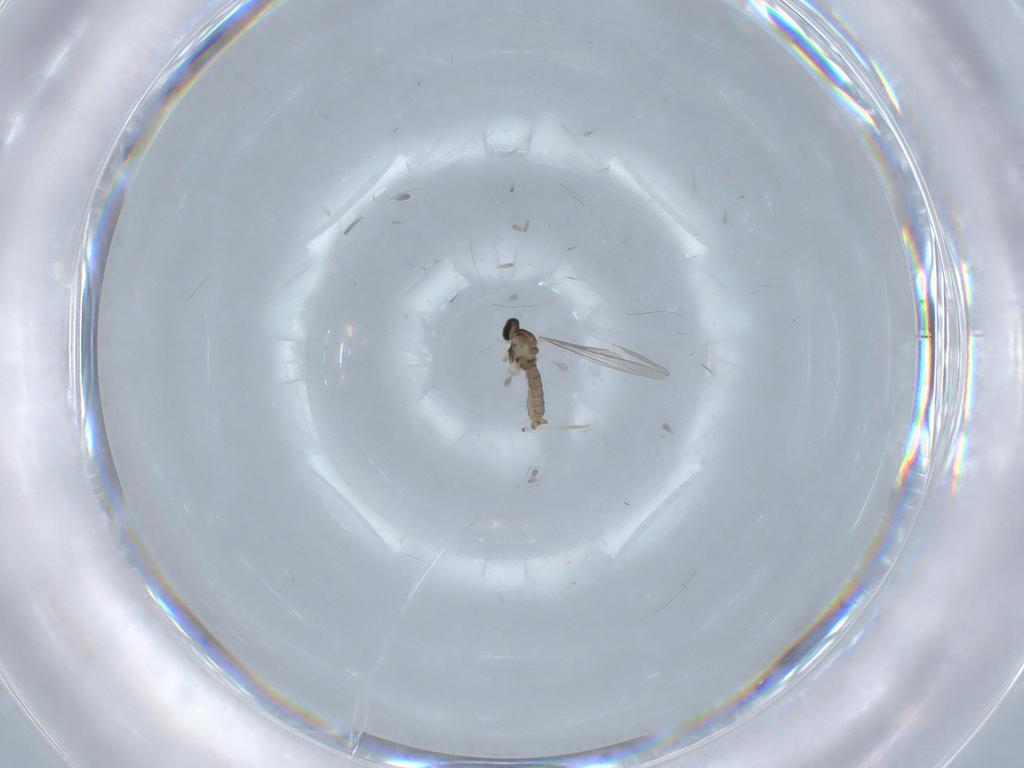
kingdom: Animalia
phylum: Arthropoda
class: Insecta
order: Diptera
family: Cecidomyiidae
